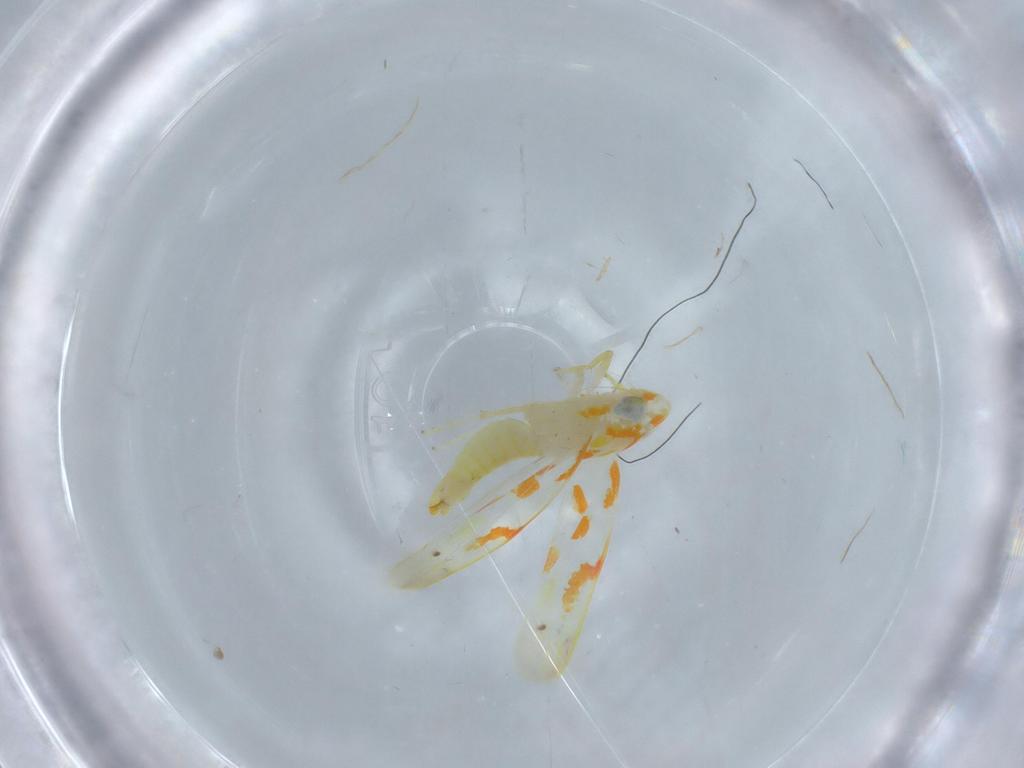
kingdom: Animalia
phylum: Arthropoda
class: Insecta
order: Hemiptera
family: Cicadellidae
